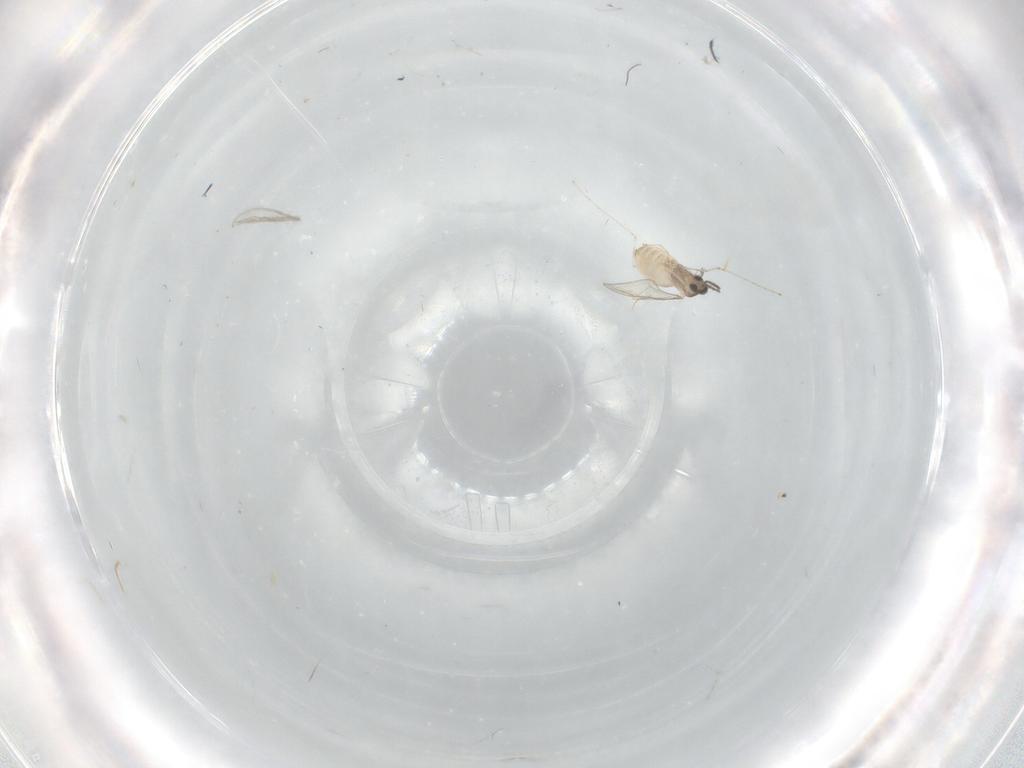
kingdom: Animalia
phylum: Arthropoda
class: Insecta
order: Diptera
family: Cecidomyiidae
